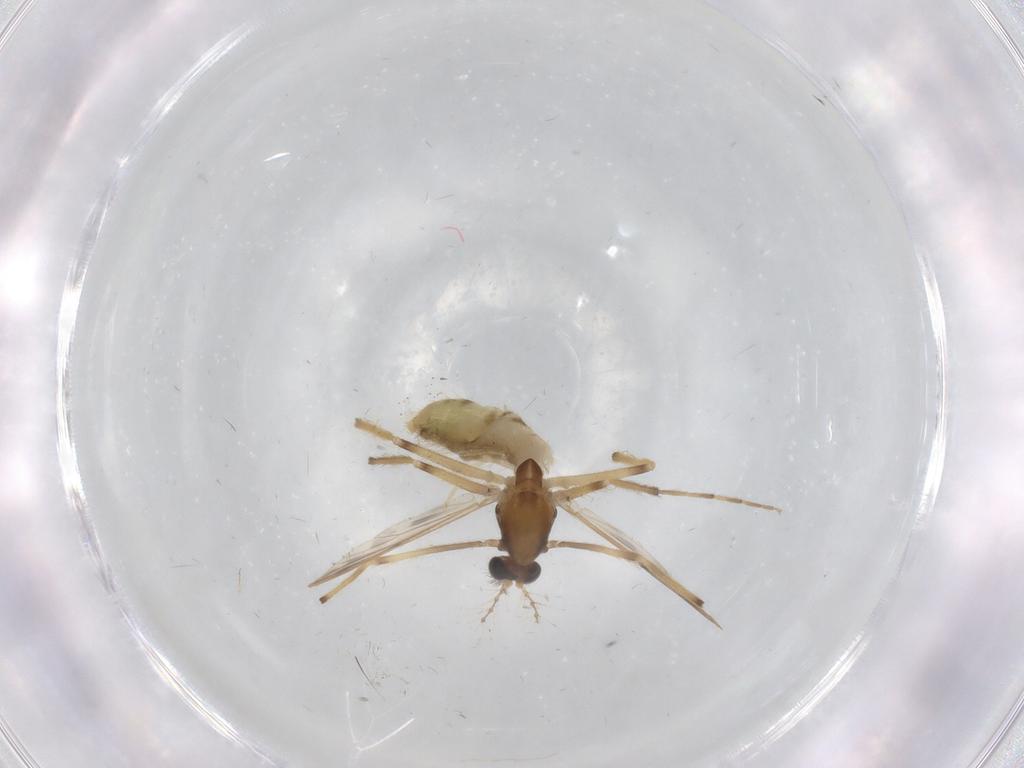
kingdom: Animalia
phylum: Arthropoda
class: Insecta
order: Diptera
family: Chironomidae
